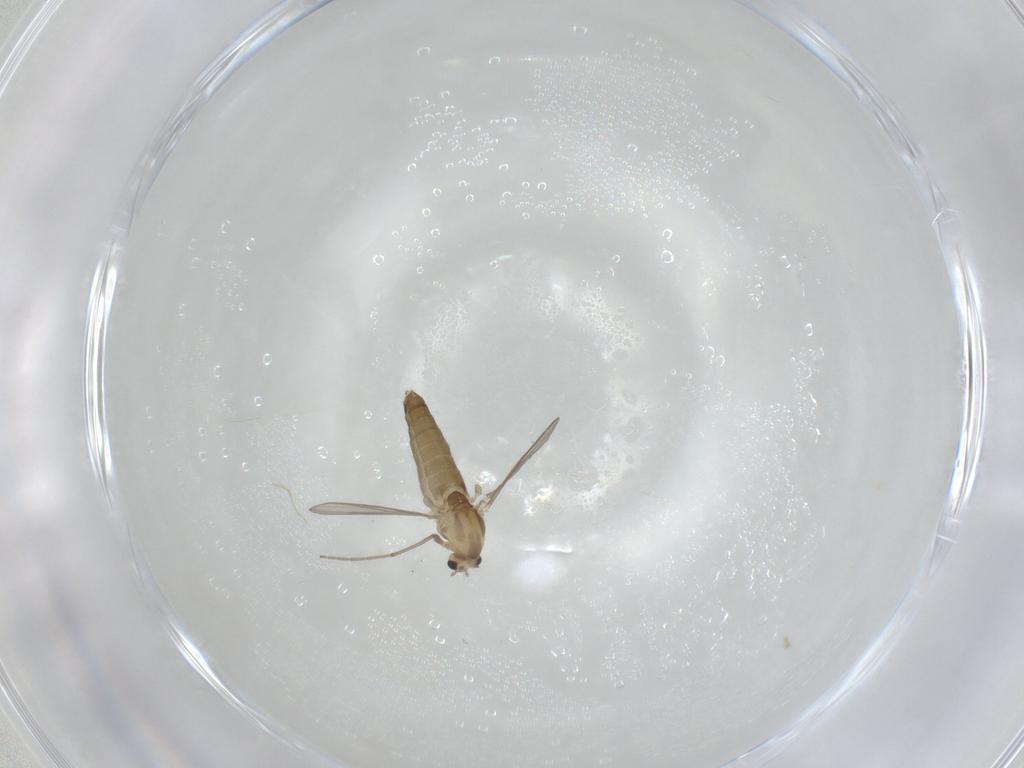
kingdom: Animalia
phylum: Arthropoda
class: Insecta
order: Diptera
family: Chironomidae
